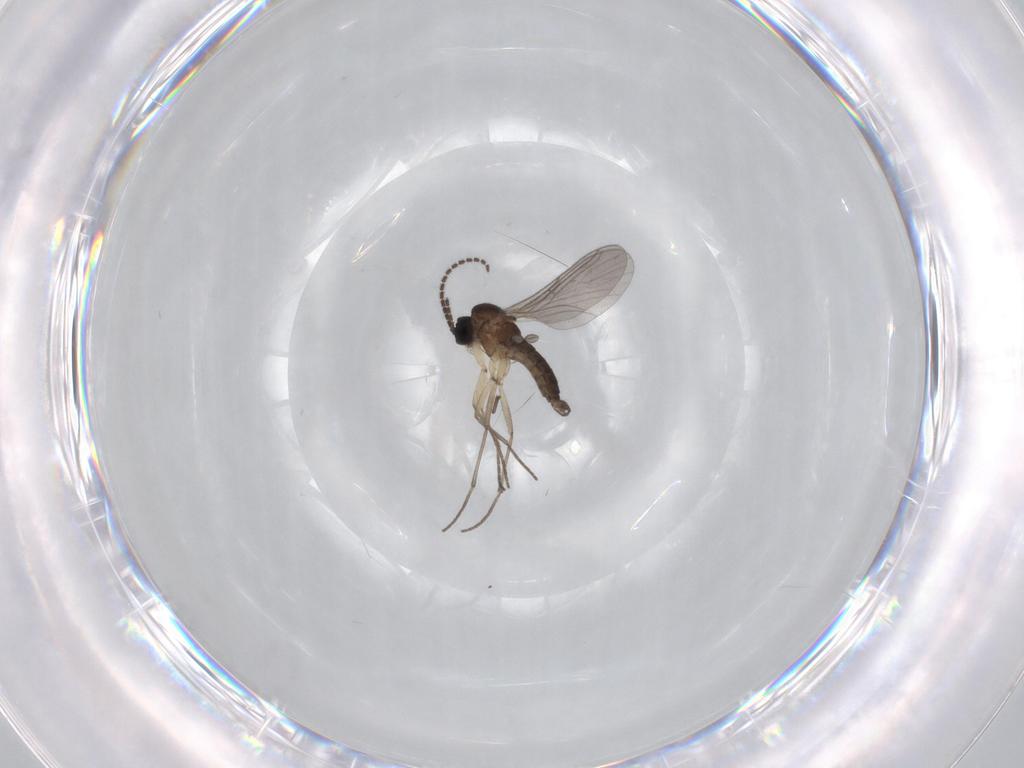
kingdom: Animalia
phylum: Arthropoda
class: Insecta
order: Diptera
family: Sciaridae
